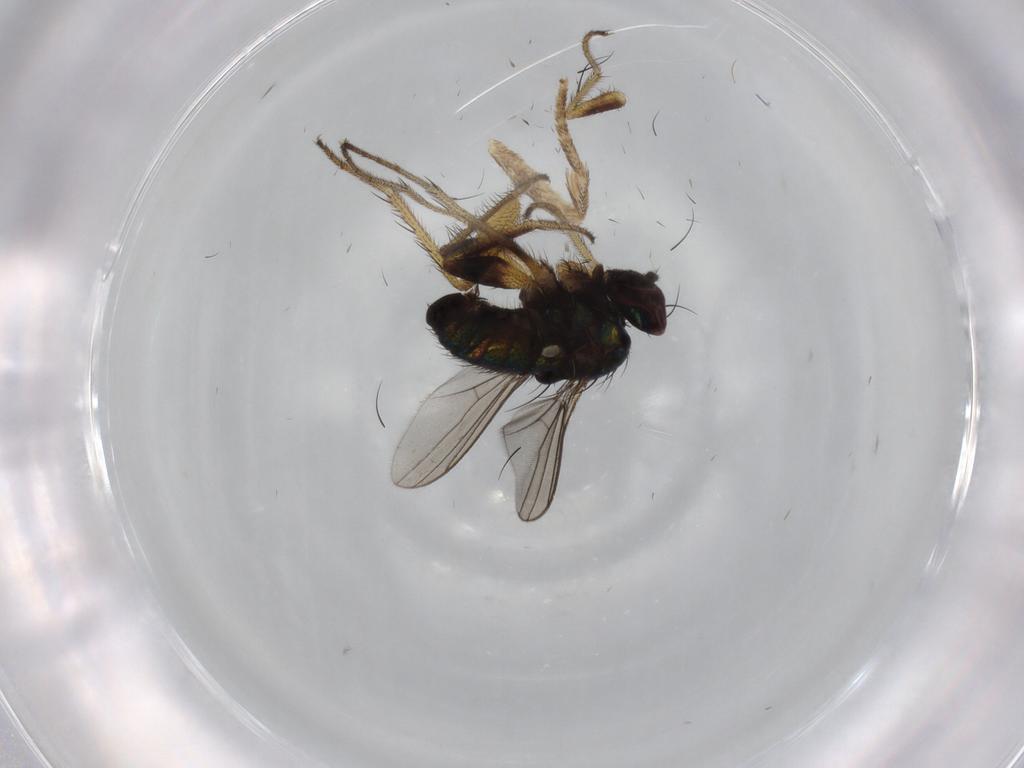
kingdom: Animalia
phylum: Arthropoda
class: Insecta
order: Diptera
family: Dolichopodidae
